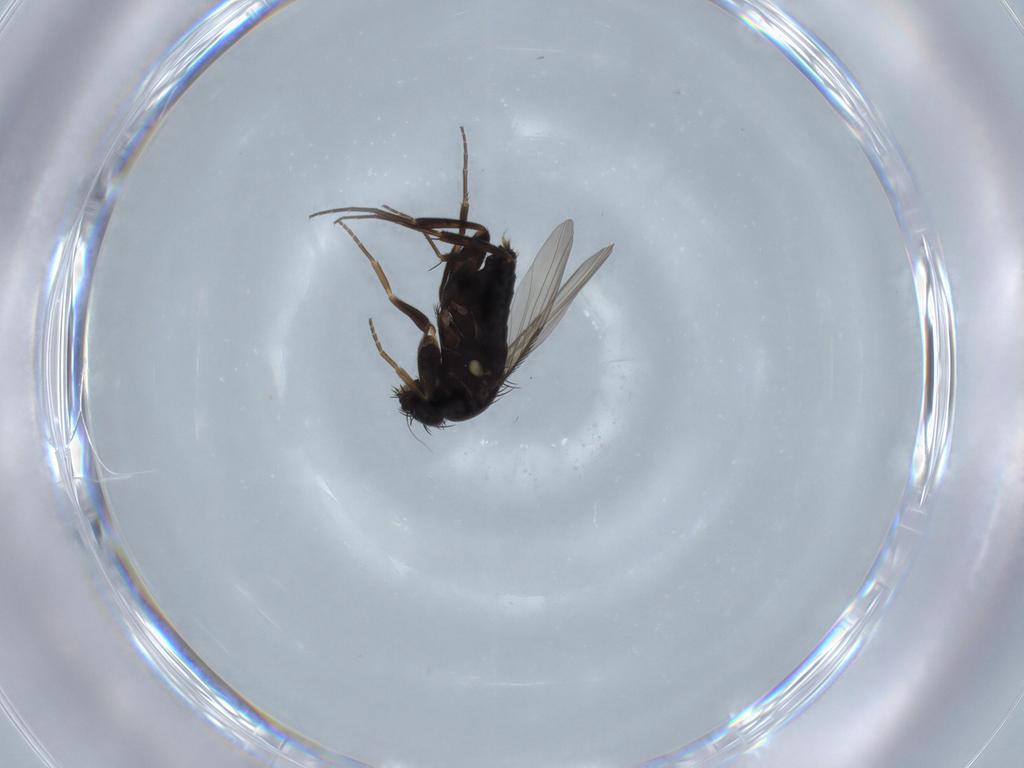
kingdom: Animalia
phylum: Arthropoda
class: Insecta
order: Diptera
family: Phoridae
